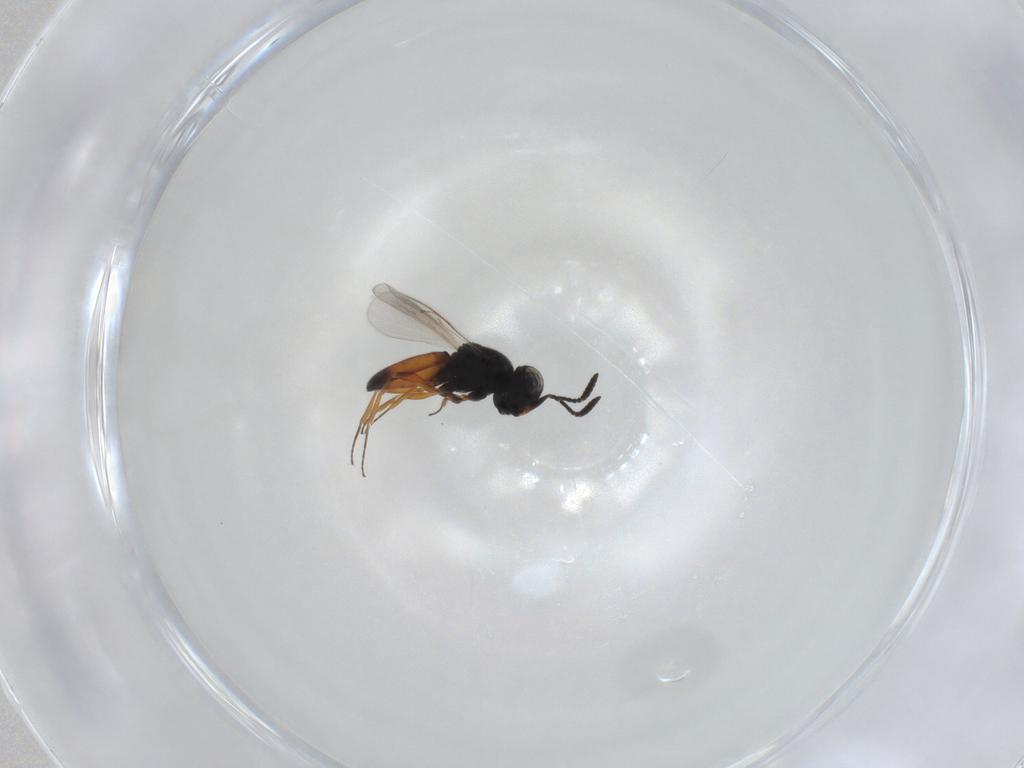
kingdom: Animalia
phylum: Arthropoda
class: Insecta
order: Hymenoptera
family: Scelionidae
